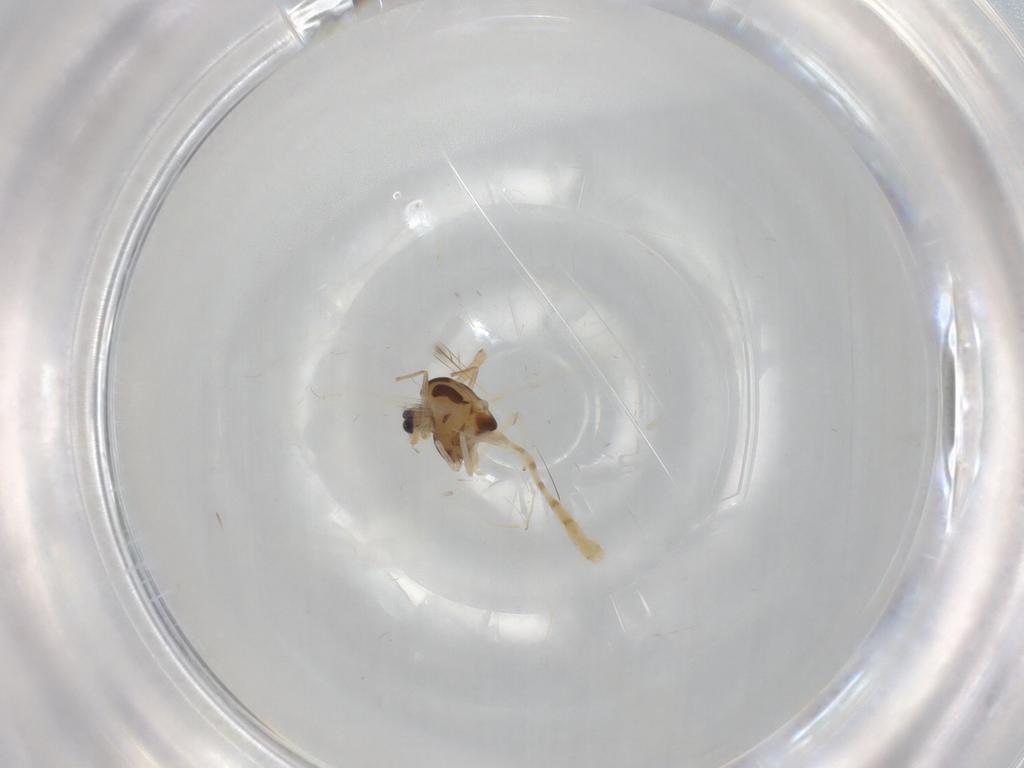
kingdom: Animalia
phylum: Arthropoda
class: Insecta
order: Diptera
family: Chironomidae
